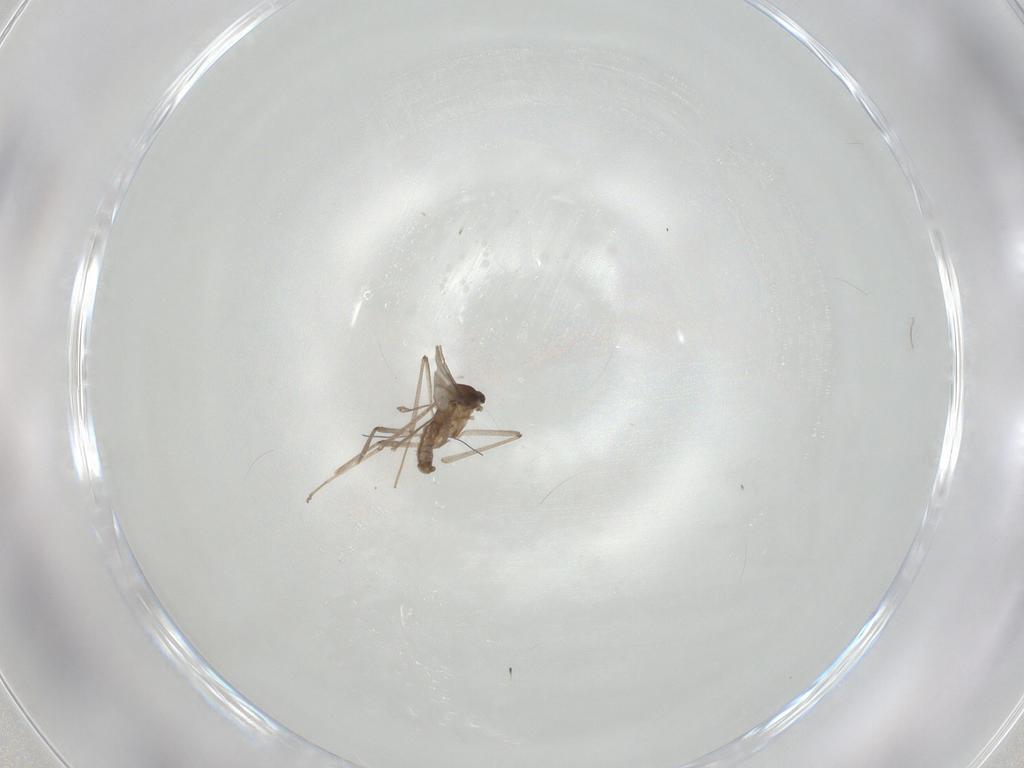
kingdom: Animalia
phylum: Arthropoda
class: Insecta
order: Diptera
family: Cecidomyiidae
